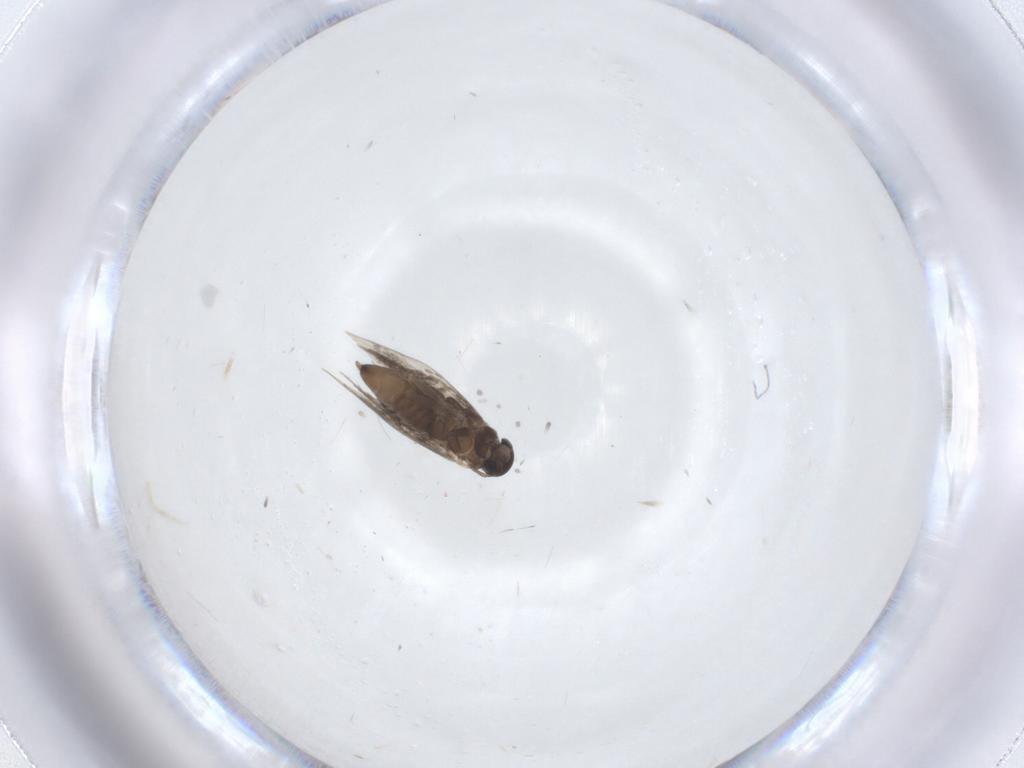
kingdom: Animalia
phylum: Arthropoda
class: Insecta
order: Lepidoptera
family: Heliozelidae
